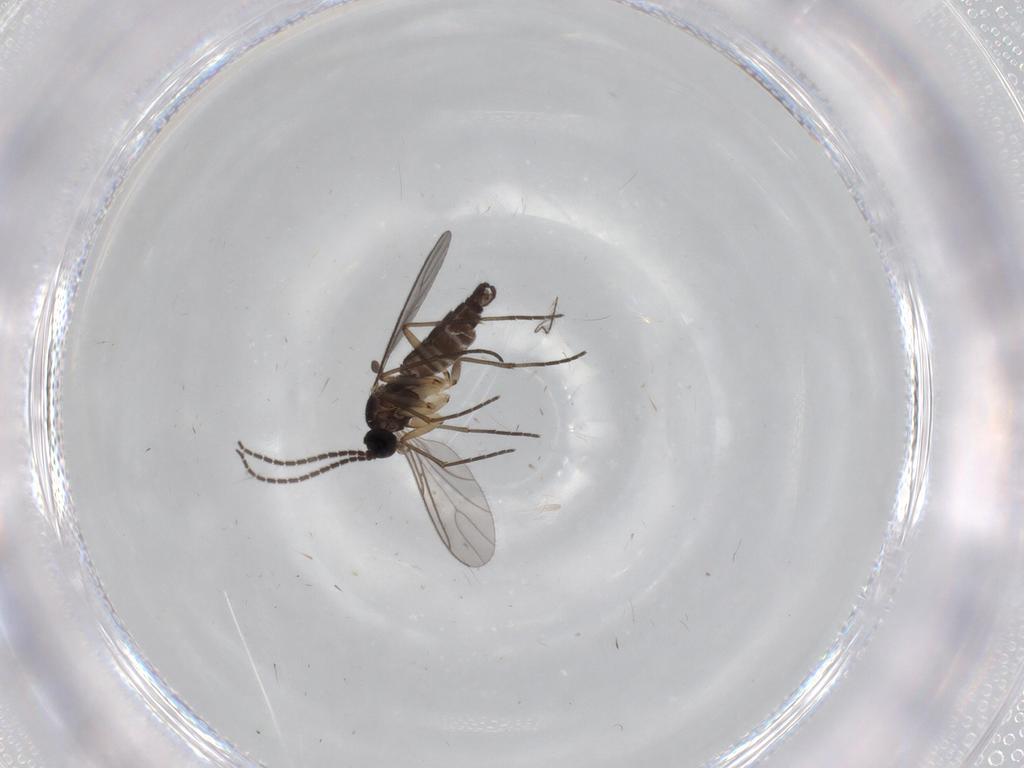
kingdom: Animalia
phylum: Arthropoda
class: Insecta
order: Diptera
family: Sciaridae
